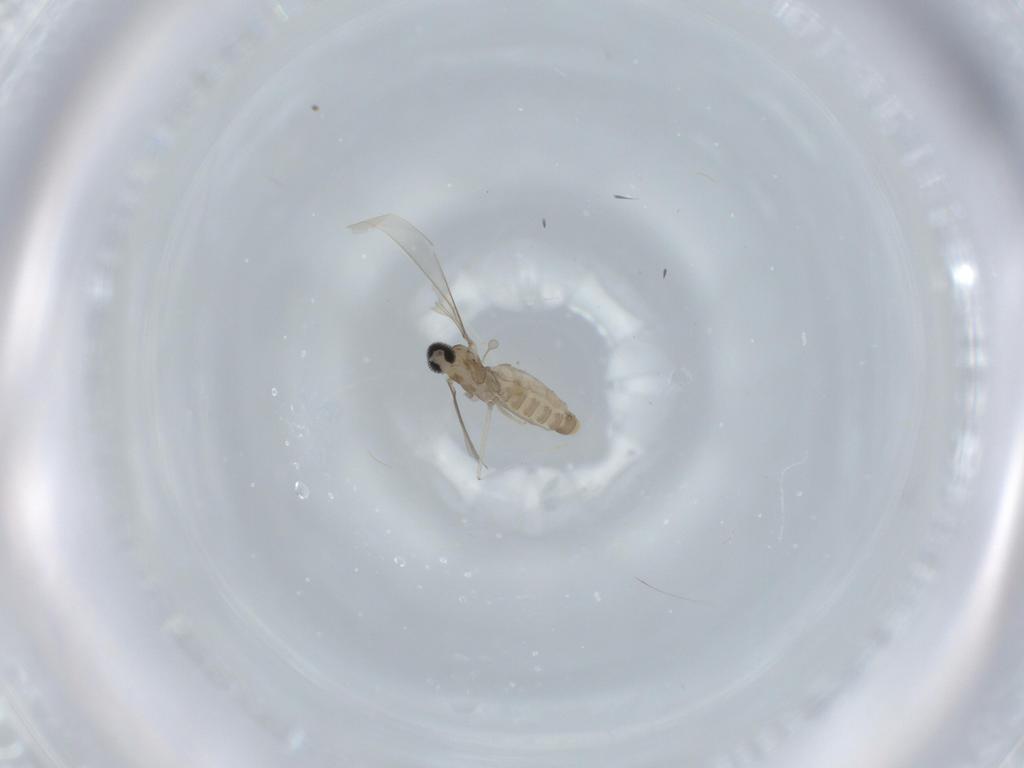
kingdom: Animalia
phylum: Arthropoda
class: Insecta
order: Diptera
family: Cecidomyiidae
